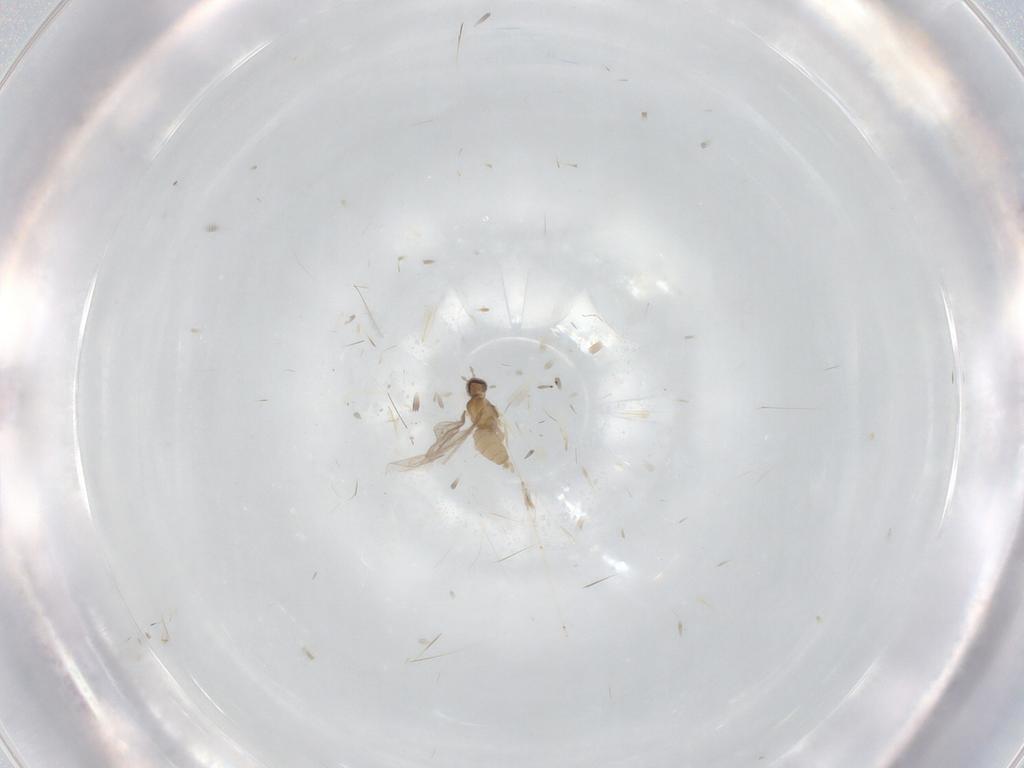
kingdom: Animalia
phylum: Arthropoda
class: Insecta
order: Diptera
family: Cecidomyiidae
